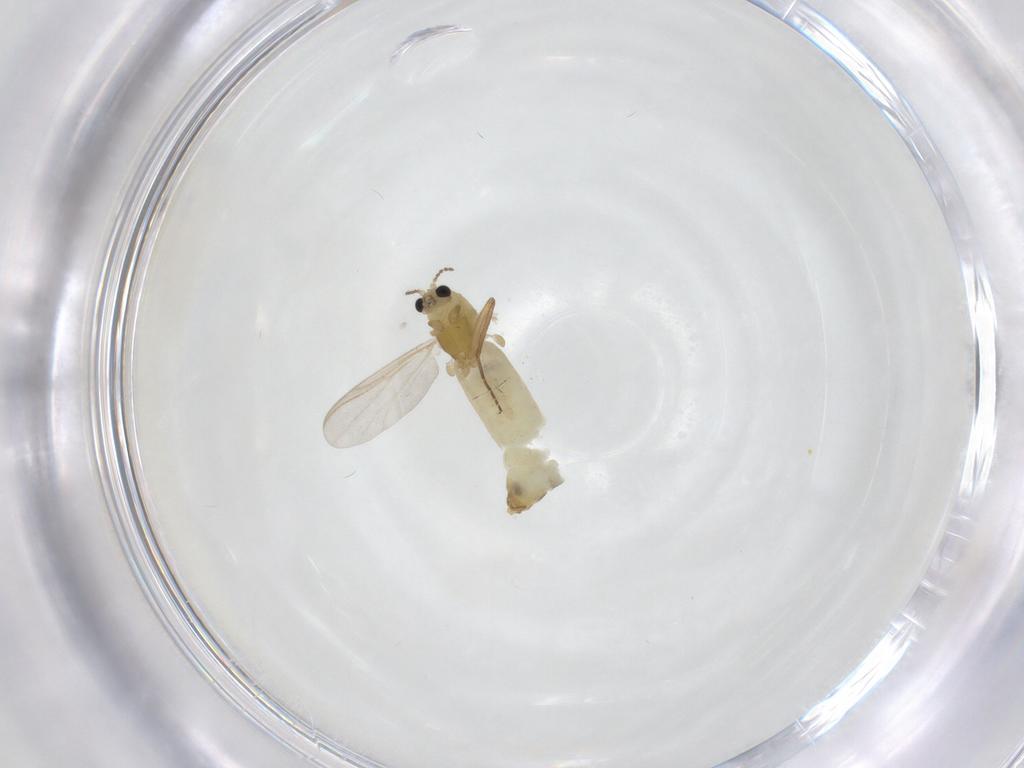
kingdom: Animalia
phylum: Arthropoda
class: Insecta
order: Diptera
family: Chironomidae
